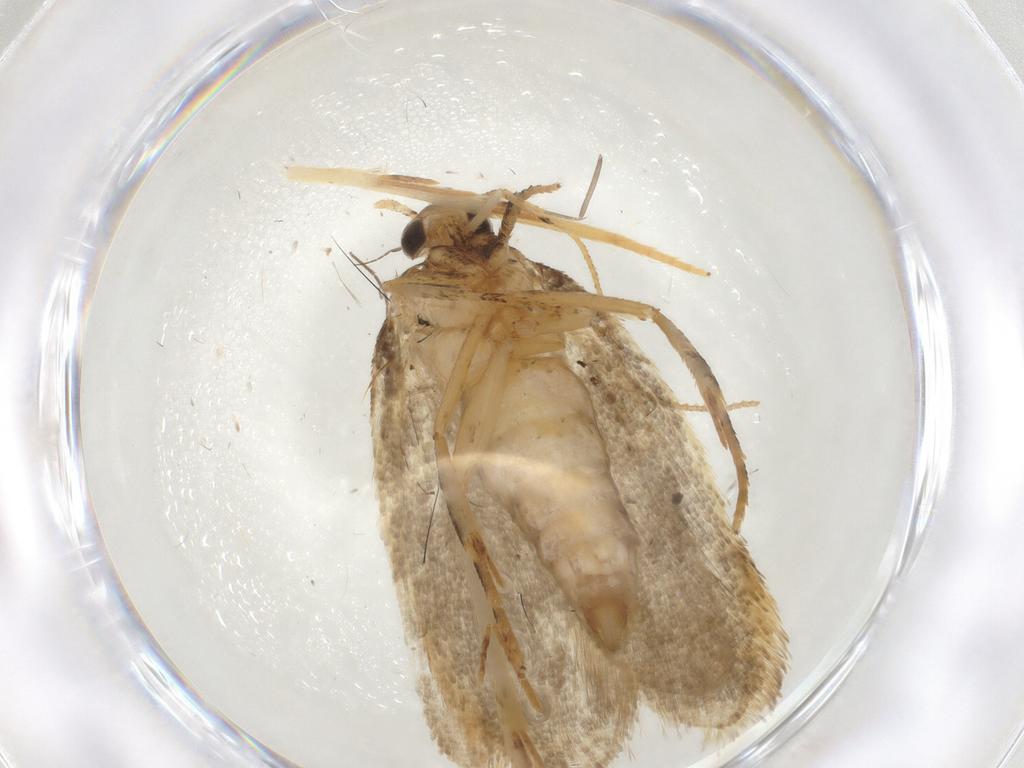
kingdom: Animalia
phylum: Arthropoda
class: Insecta
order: Lepidoptera
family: Gelechiidae
